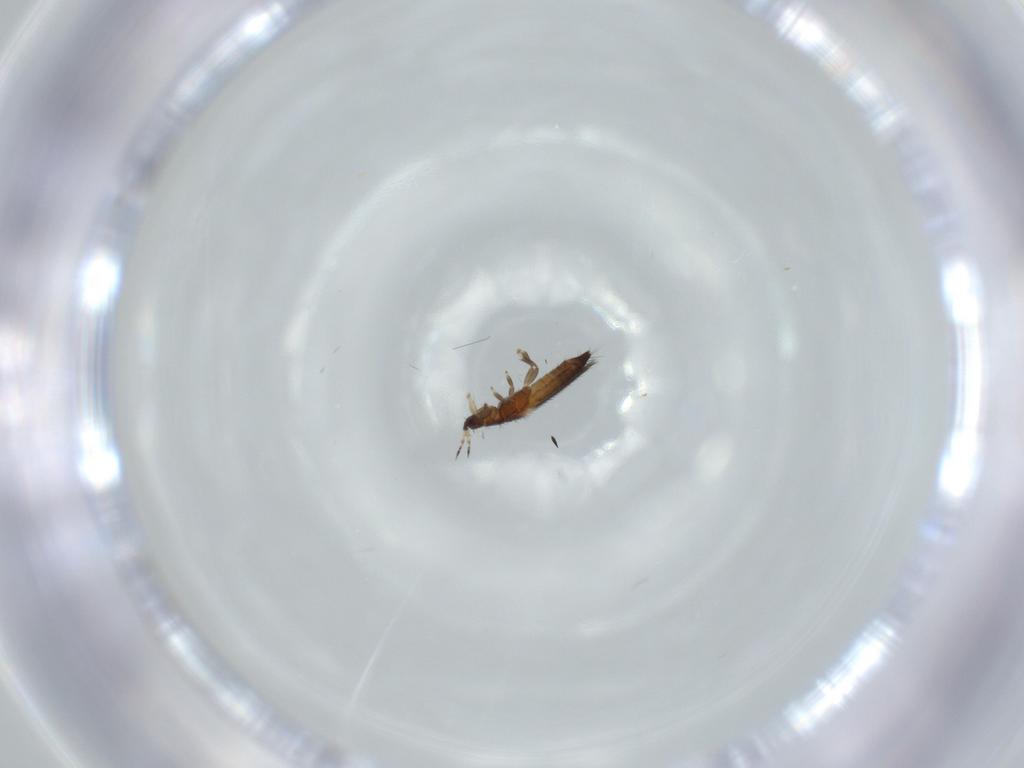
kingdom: Animalia
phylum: Arthropoda
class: Insecta
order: Thysanoptera
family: Thripidae
